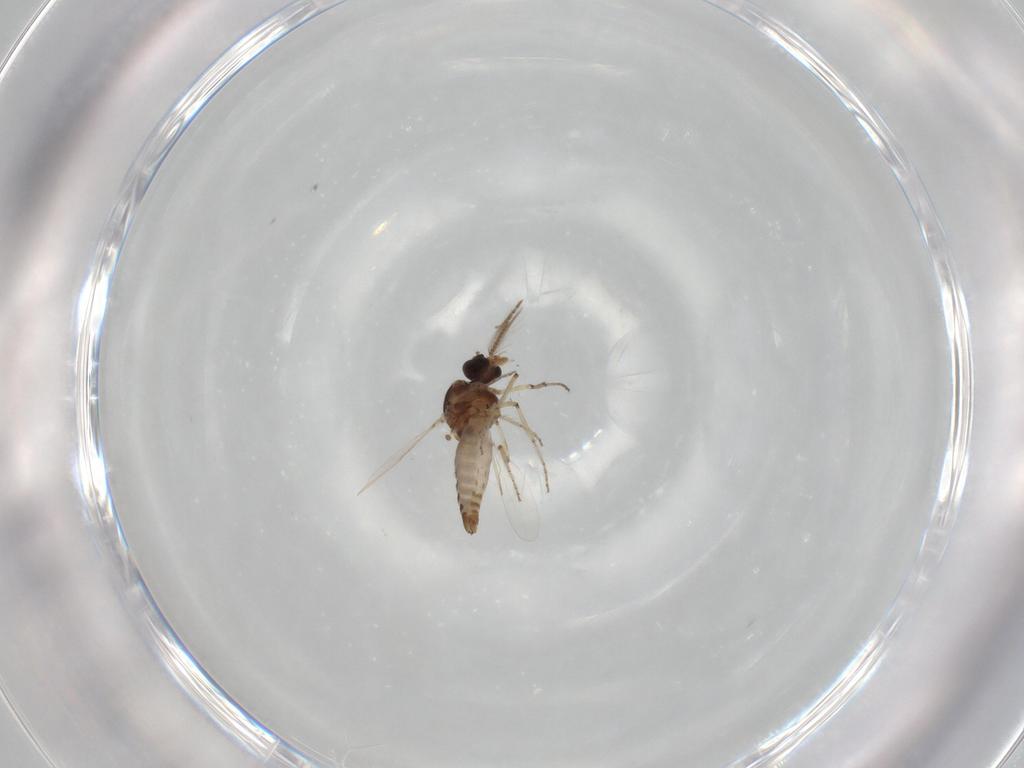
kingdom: Animalia
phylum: Arthropoda
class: Insecta
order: Diptera
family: Ceratopogonidae
